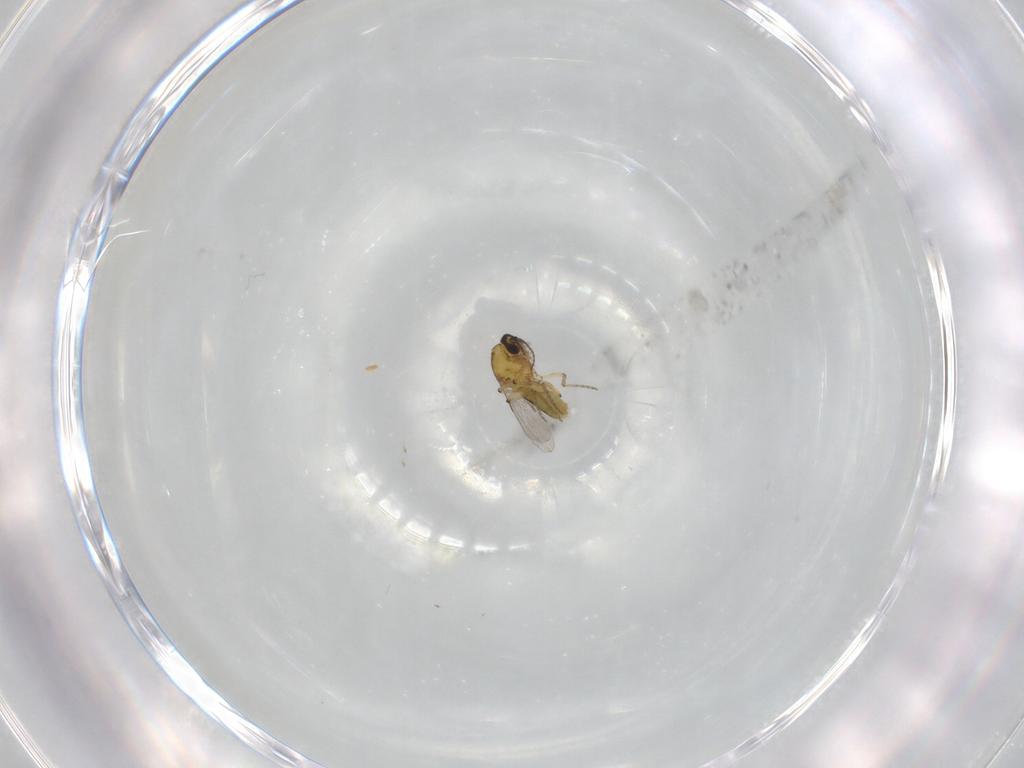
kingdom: Animalia
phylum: Arthropoda
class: Insecta
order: Diptera
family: Ceratopogonidae
